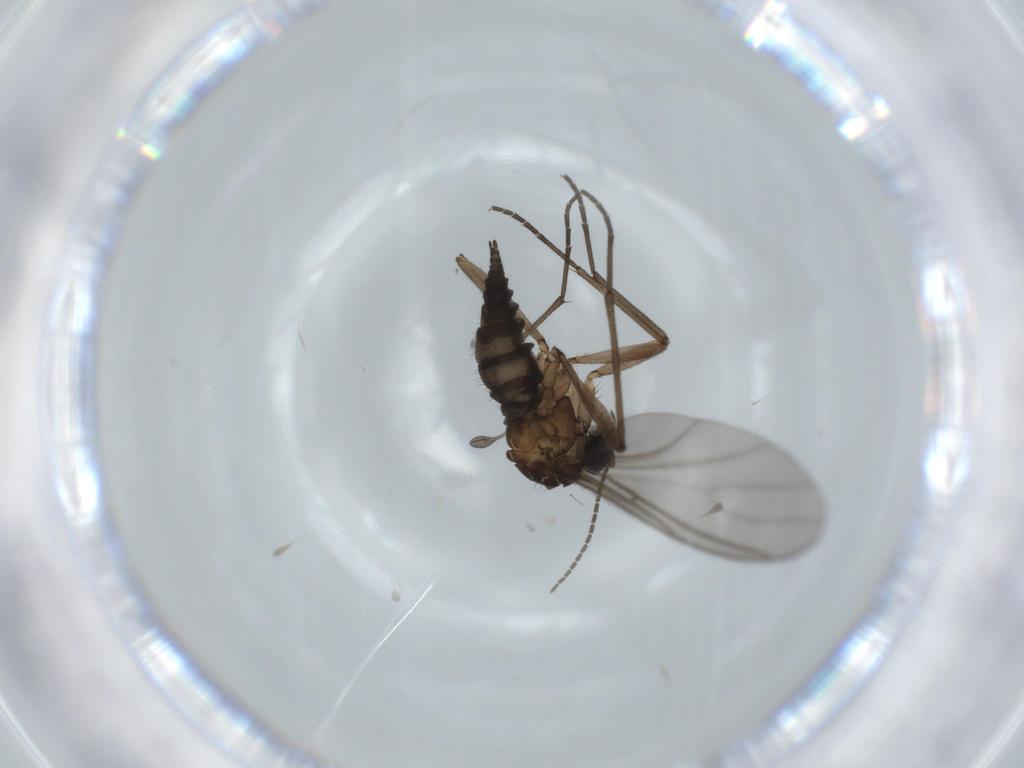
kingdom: Animalia
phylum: Arthropoda
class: Insecta
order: Diptera
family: Sciaridae
